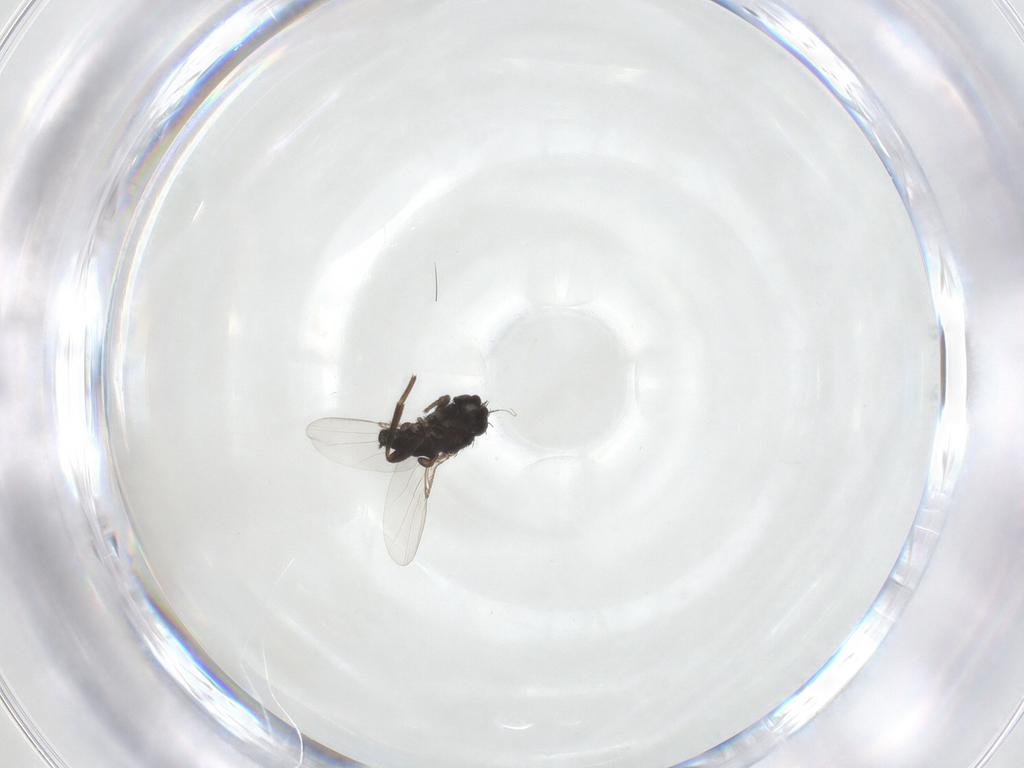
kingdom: Animalia
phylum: Arthropoda
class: Insecta
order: Diptera
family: Phoridae
